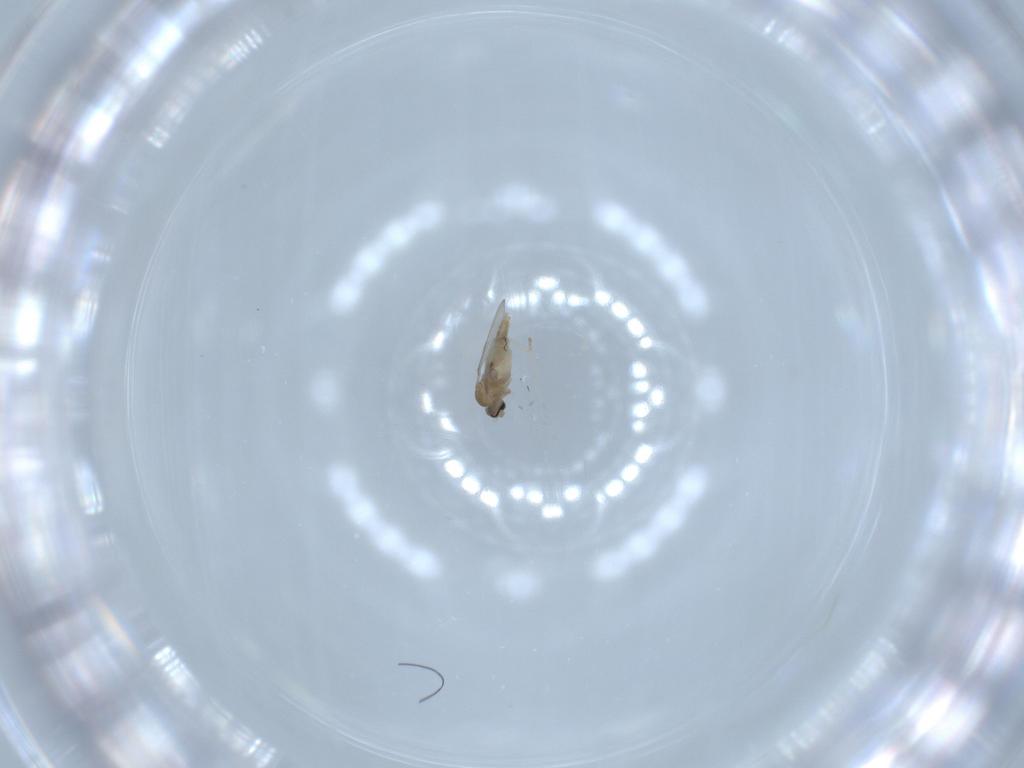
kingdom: Animalia
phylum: Arthropoda
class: Insecta
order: Diptera
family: Cecidomyiidae
